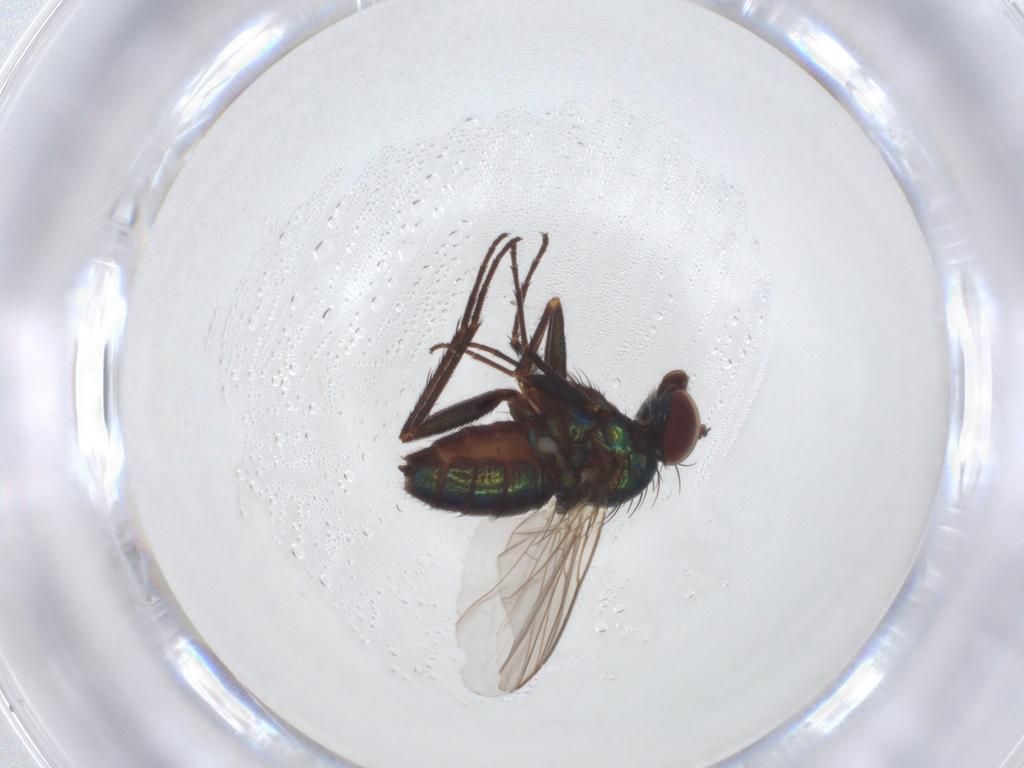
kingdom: Animalia
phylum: Arthropoda
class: Insecta
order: Diptera
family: Dolichopodidae
